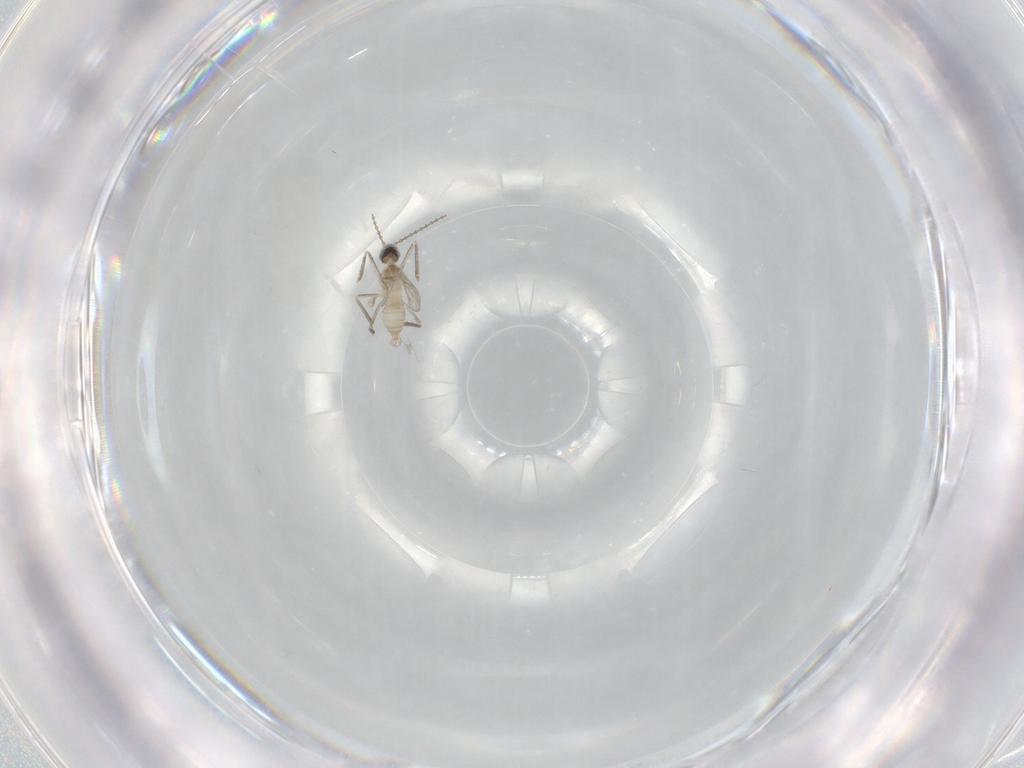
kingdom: Animalia
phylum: Arthropoda
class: Insecta
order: Diptera
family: Cecidomyiidae
